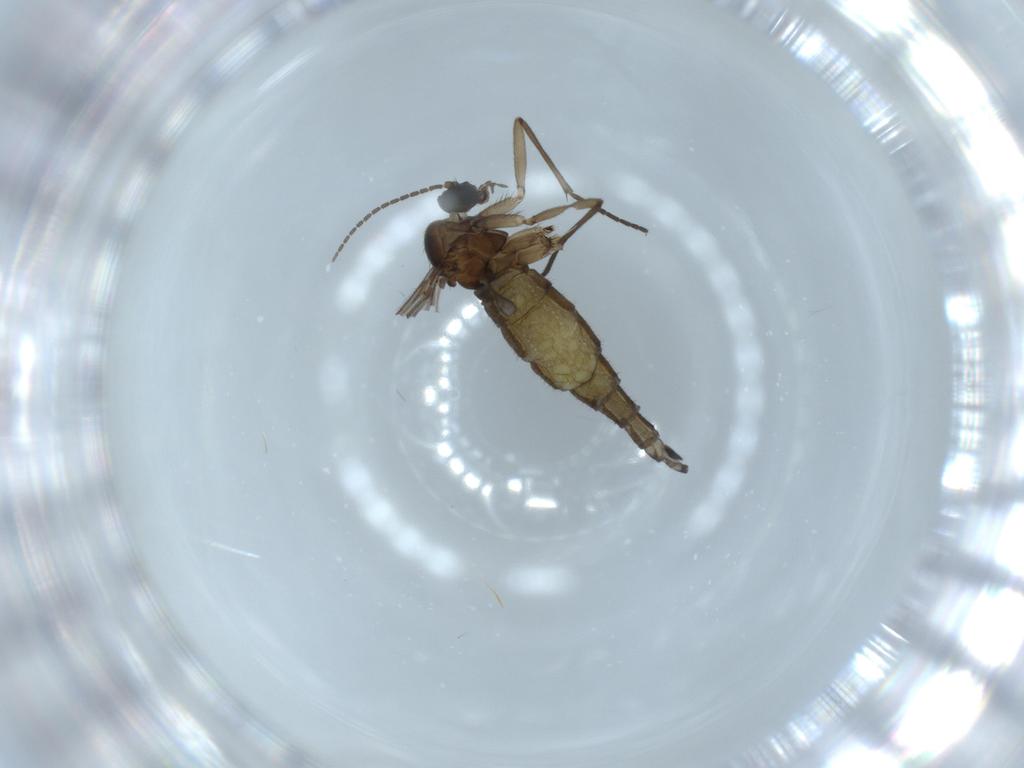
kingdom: Animalia
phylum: Arthropoda
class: Insecta
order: Diptera
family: Sciaridae
